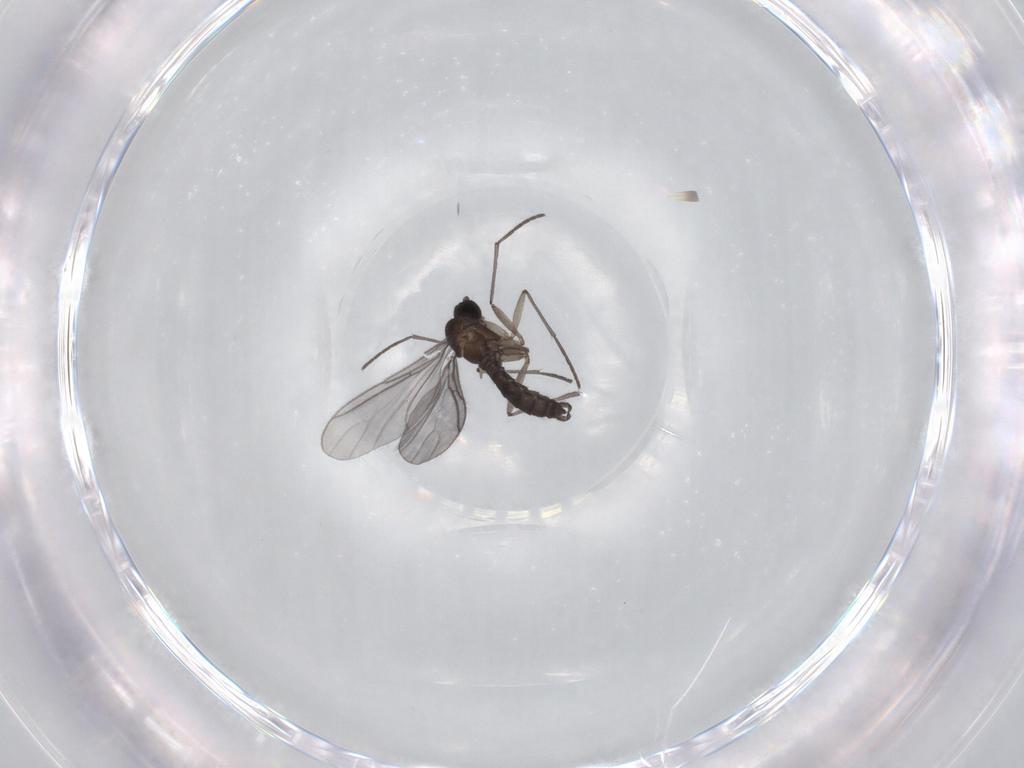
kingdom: Animalia
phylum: Arthropoda
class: Insecta
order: Diptera
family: Sciaridae
